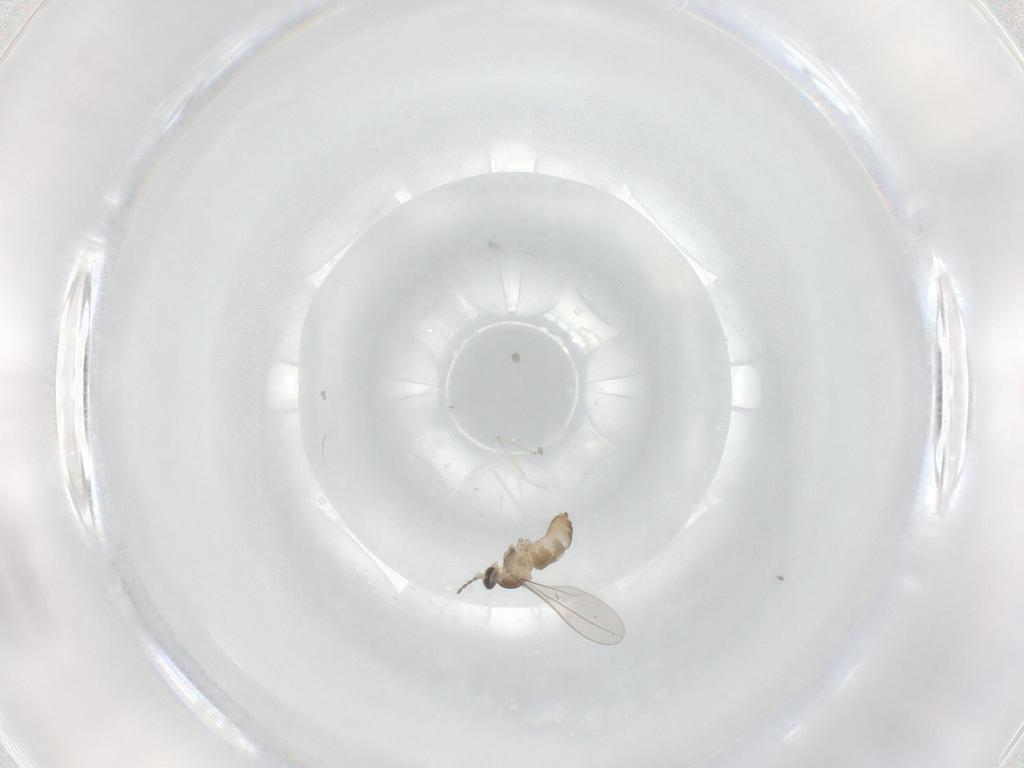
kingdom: Animalia
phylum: Arthropoda
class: Insecta
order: Diptera
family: Cecidomyiidae
